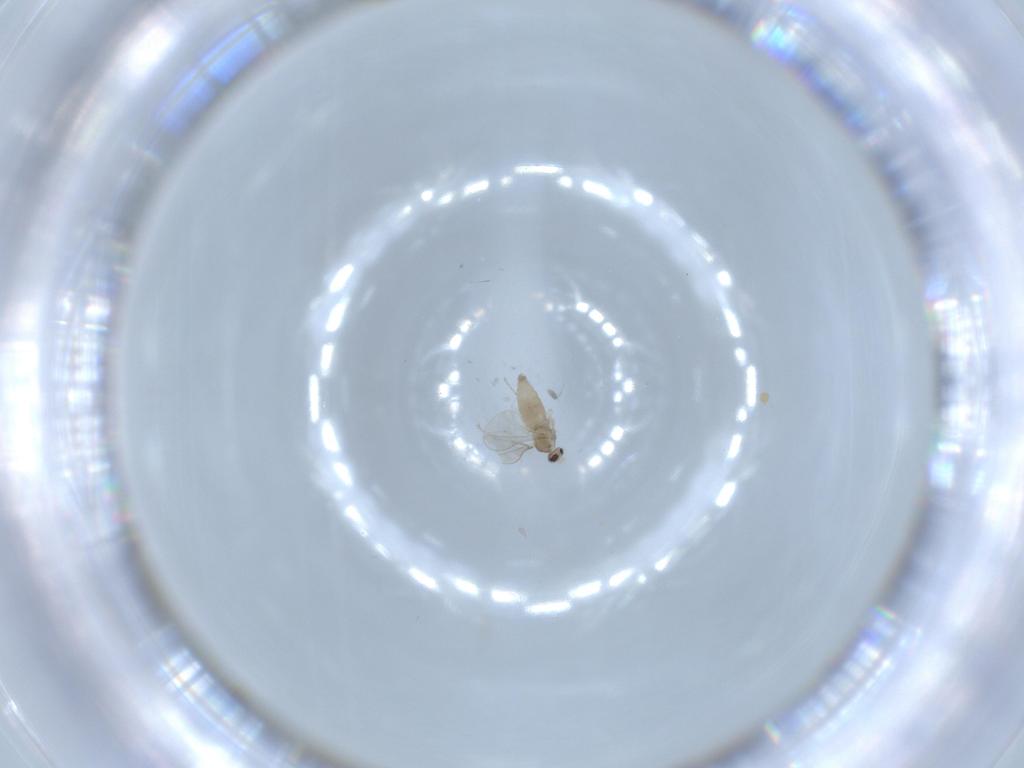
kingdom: Animalia
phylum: Arthropoda
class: Insecta
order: Diptera
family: Cecidomyiidae
